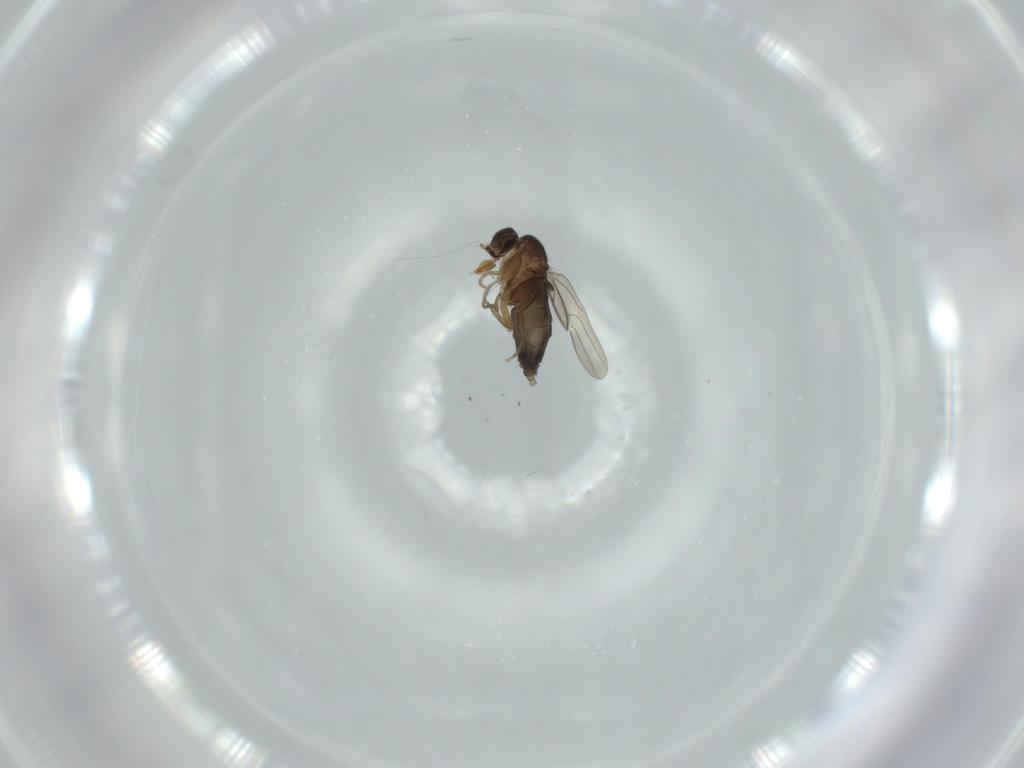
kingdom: Animalia
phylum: Arthropoda
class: Insecta
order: Diptera
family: Phoridae
